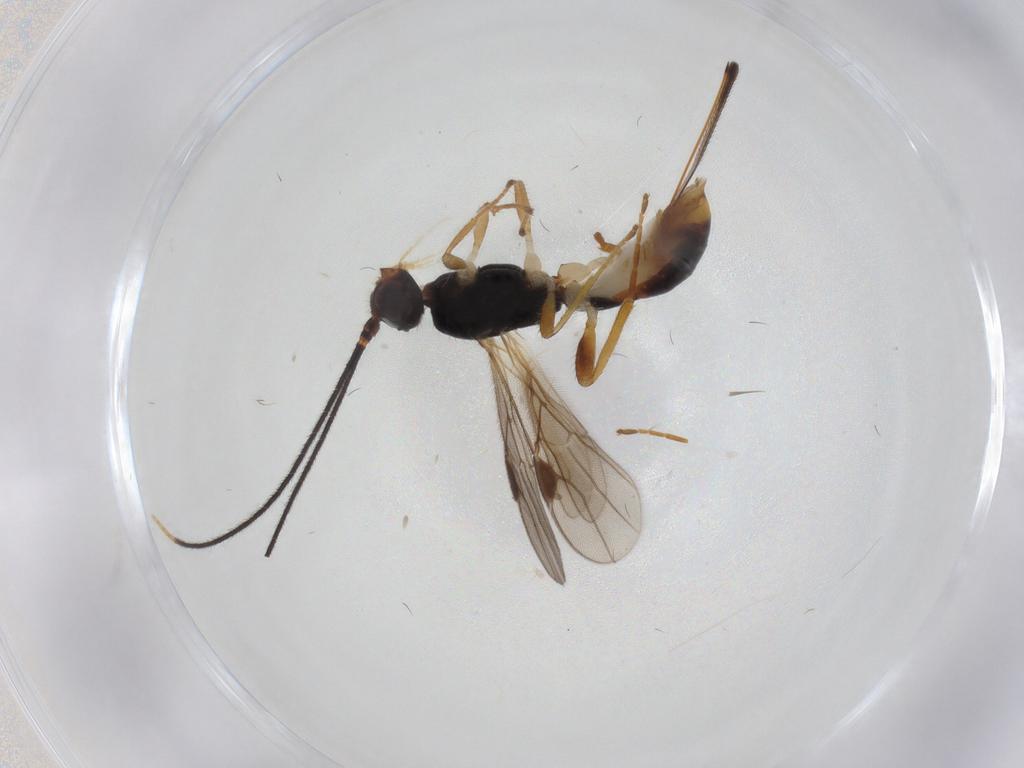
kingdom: Animalia
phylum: Arthropoda
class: Insecta
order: Hymenoptera
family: Braconidae
